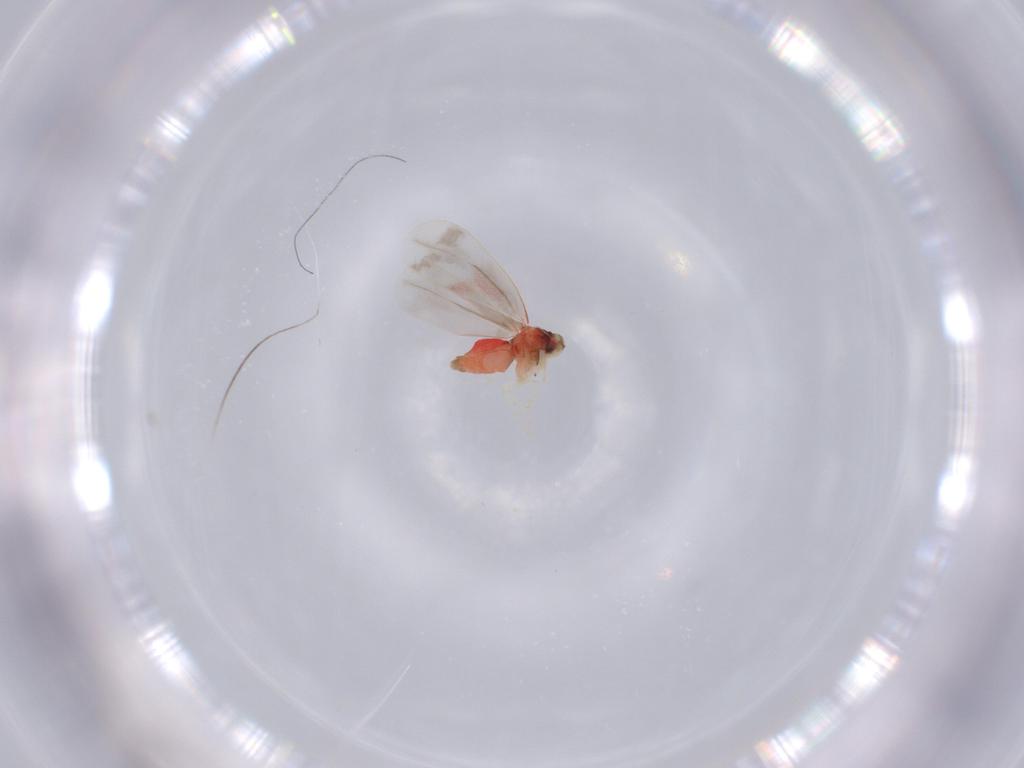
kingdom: Animalia
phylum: Arthropoda
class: Insecta
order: Hemiptera
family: Aleyrodidae
